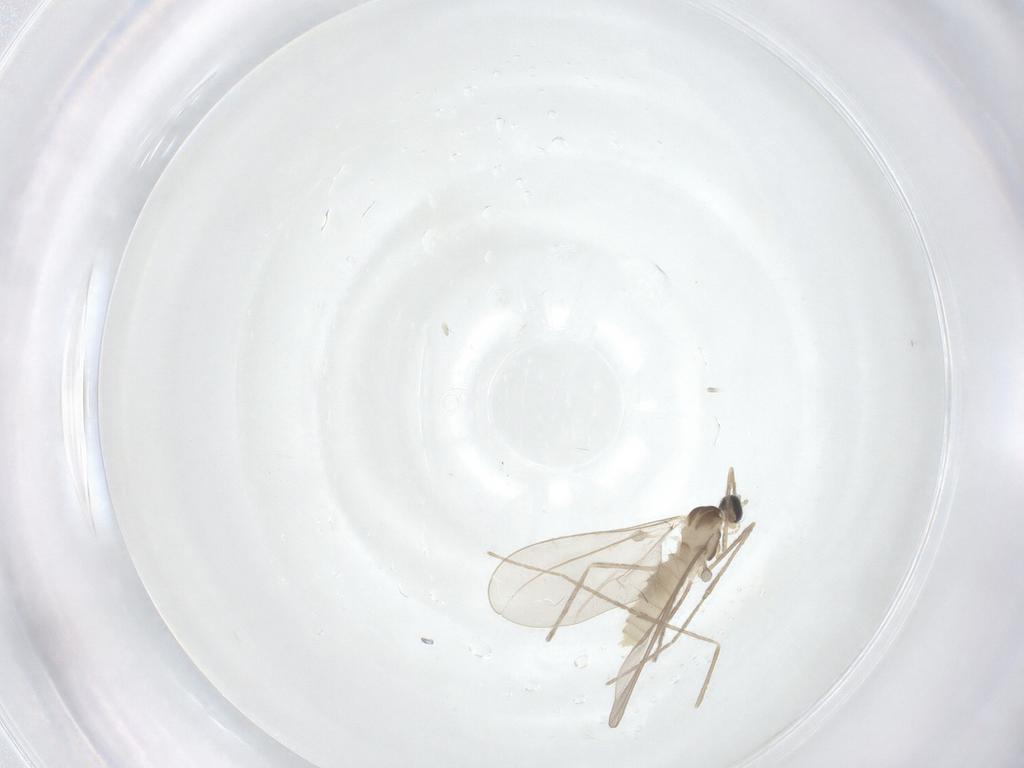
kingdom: Animalia
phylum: Arthropoda
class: Insecta
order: Diptera
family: Cecidomyiidae
